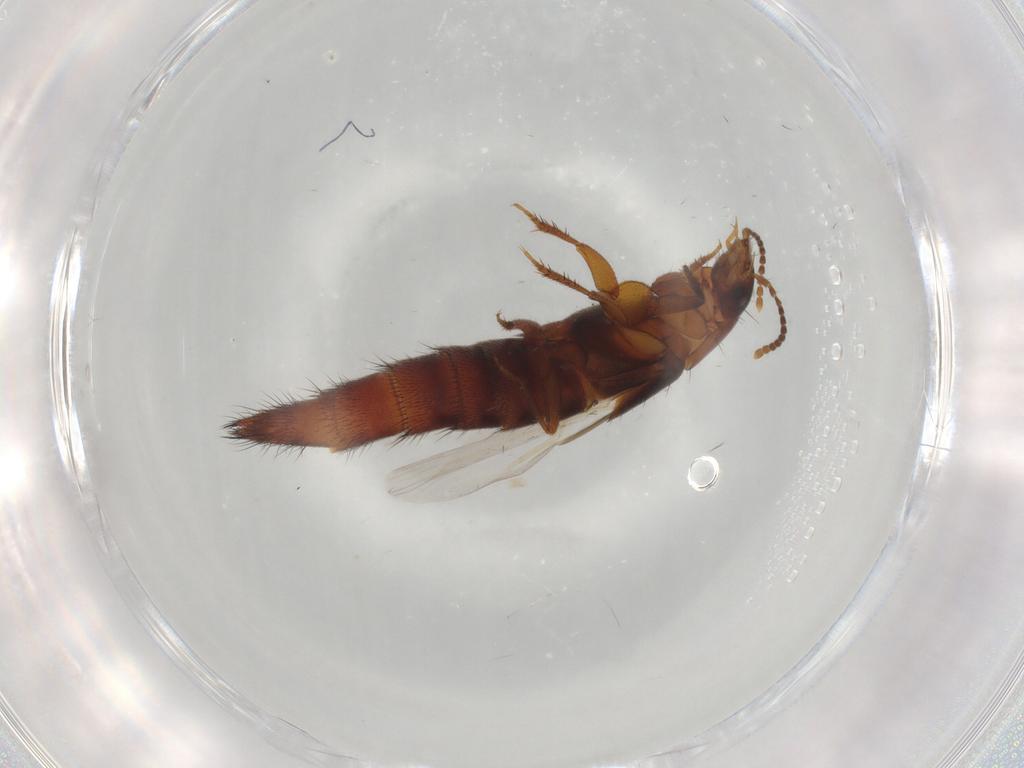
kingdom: Animalia
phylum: Arthropoda
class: Insecta
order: Coleoptera
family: Staphylinidae
